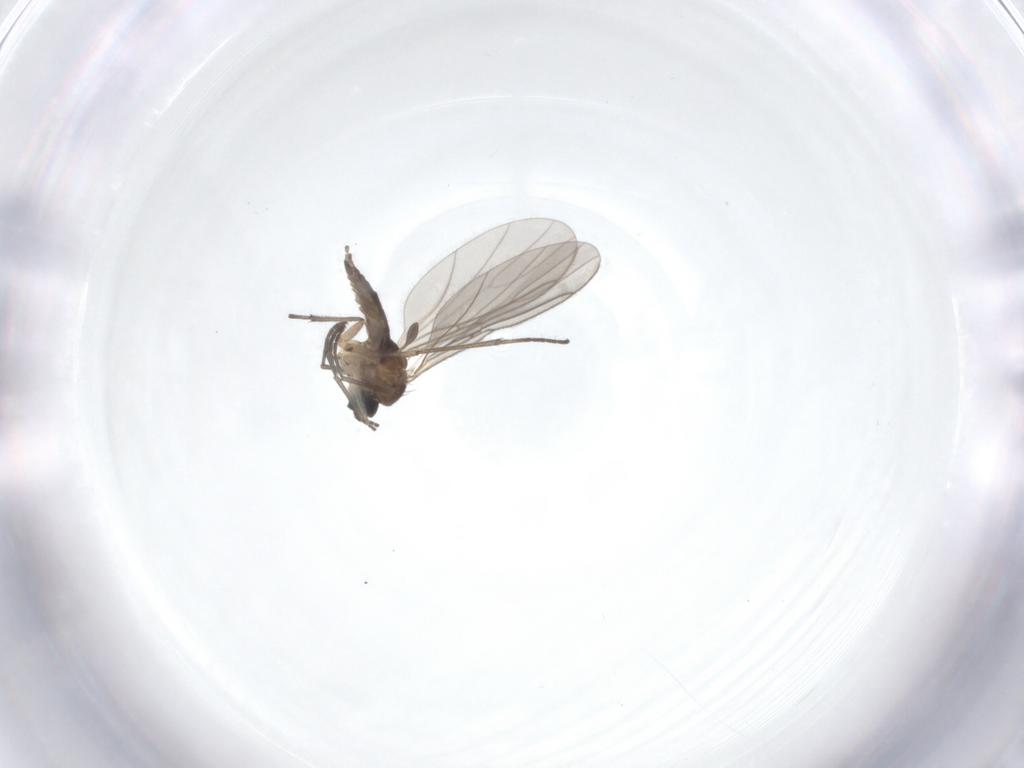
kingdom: Animalia
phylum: Arthropoda
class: Insecta
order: Diptera
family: Sciaridae
